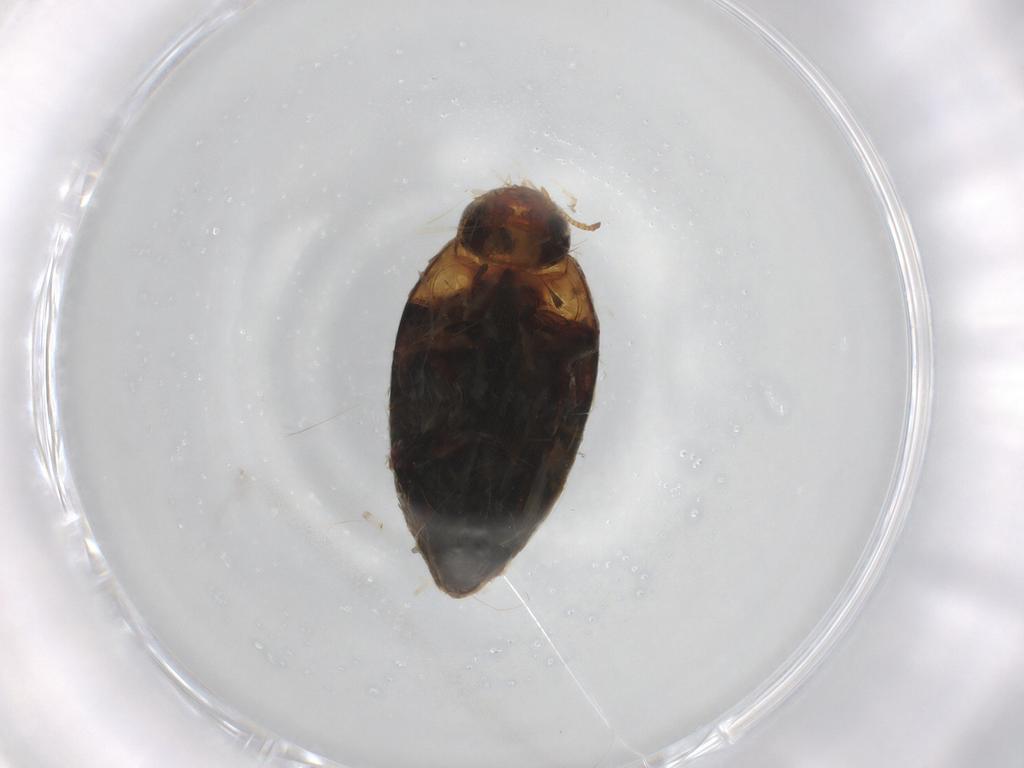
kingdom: Animalia
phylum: Arthropoda
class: Insecta
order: Coleoptera
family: Noteridae
